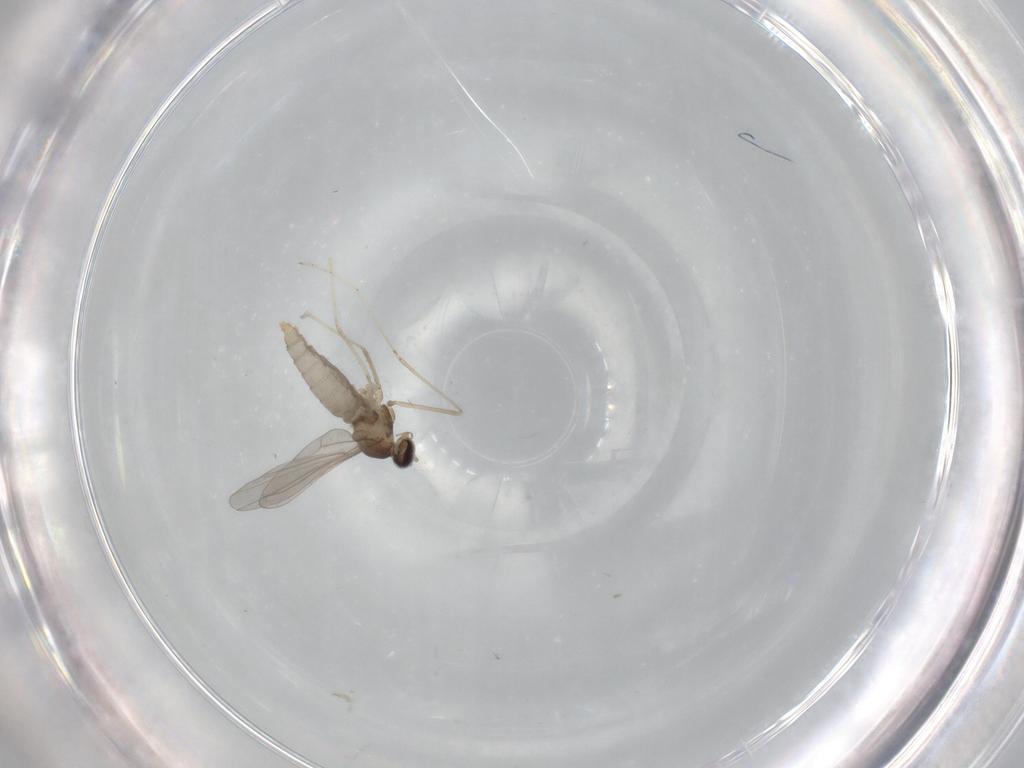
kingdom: Animalia
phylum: Arthropoda
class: Insecta
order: Diptera
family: Cecidomyiidae
